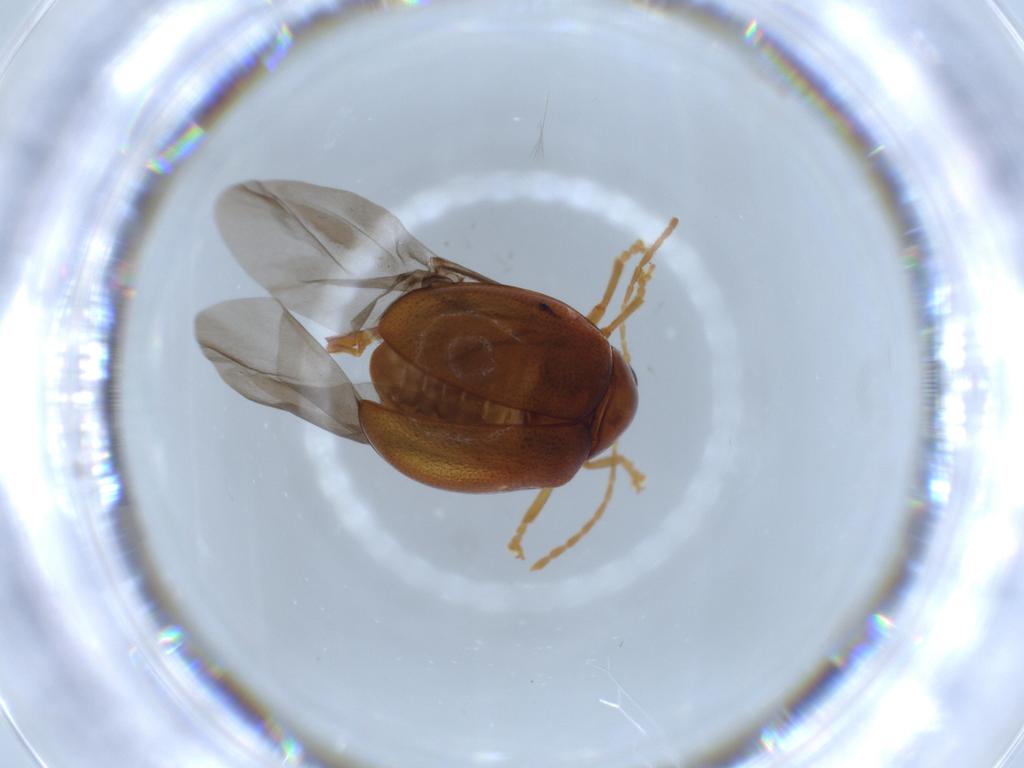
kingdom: Animalia
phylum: Arthropoda
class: Insecta
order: Coleoptera
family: Chrysomelidae
